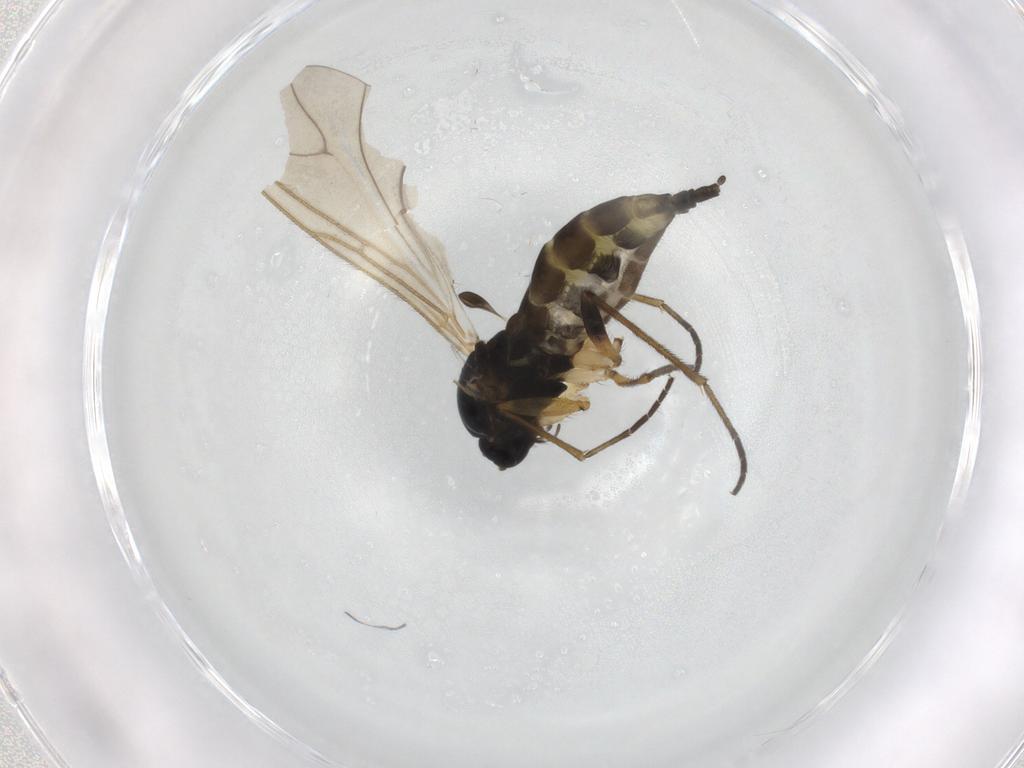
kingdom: Animalia
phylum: Arthropoda
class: Insecta
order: Diptera
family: Sciaridae
